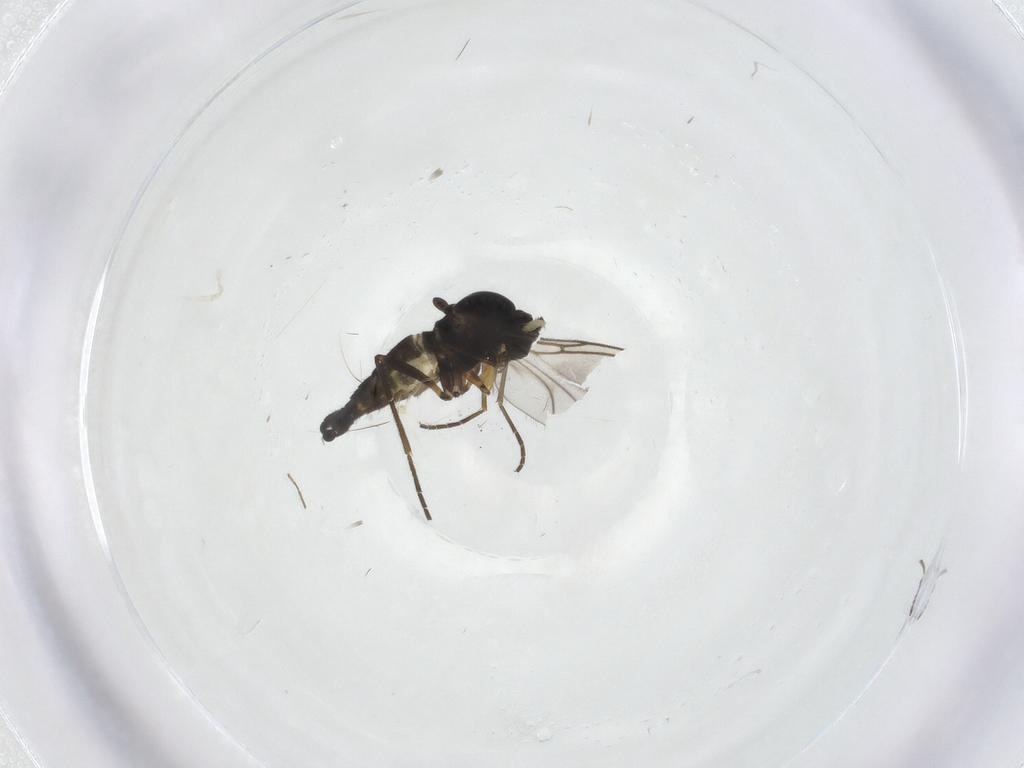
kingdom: Animalia
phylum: Arthropoda
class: Insecta
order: Diptera
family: Sciaridae
